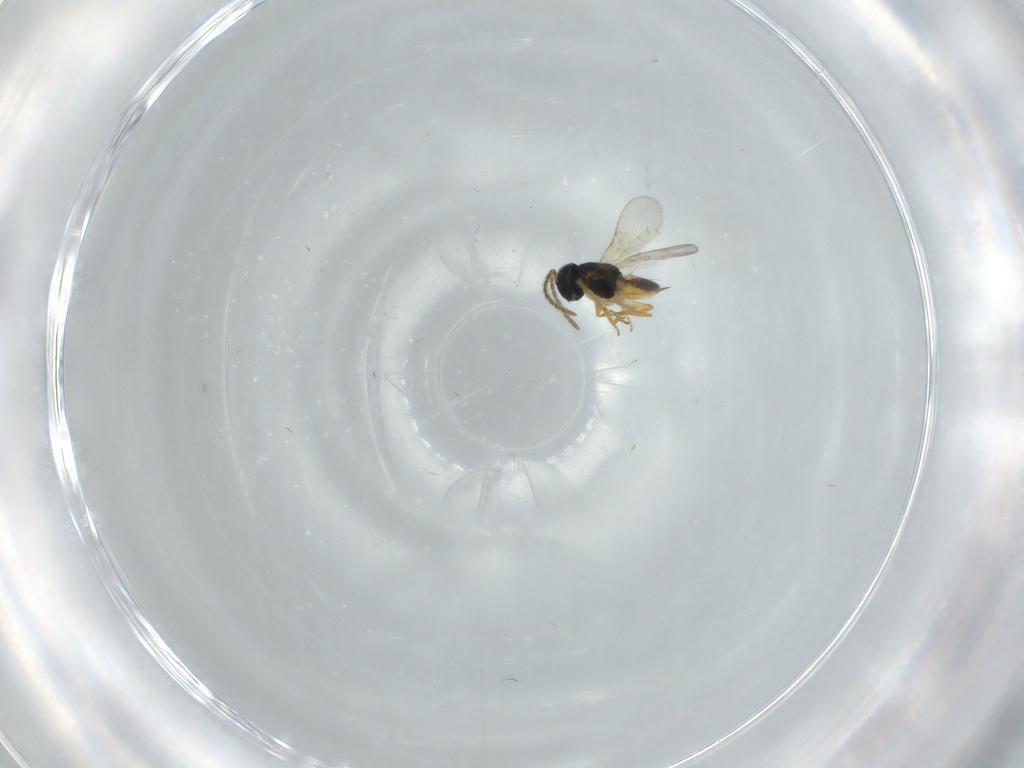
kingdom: Animalia
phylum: Arthropoda
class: Insecta
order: Hymenoptera
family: Encyrtidae
